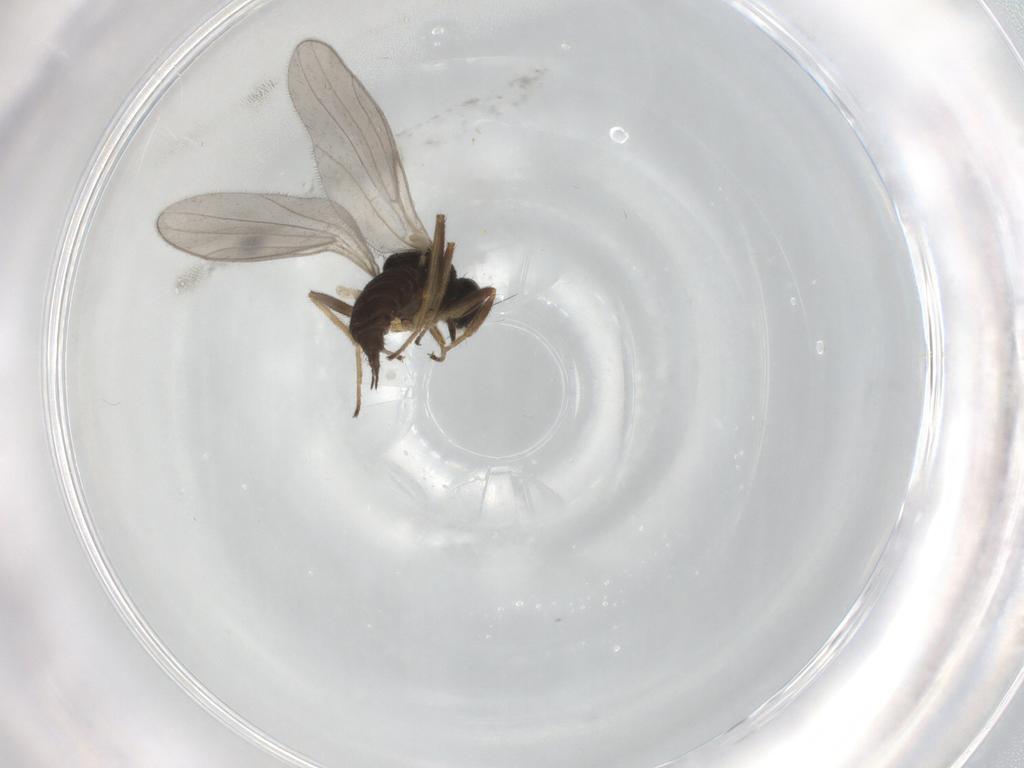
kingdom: Animalia
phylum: Arthropoda
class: Insecta
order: Diptera
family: Hybotidae
